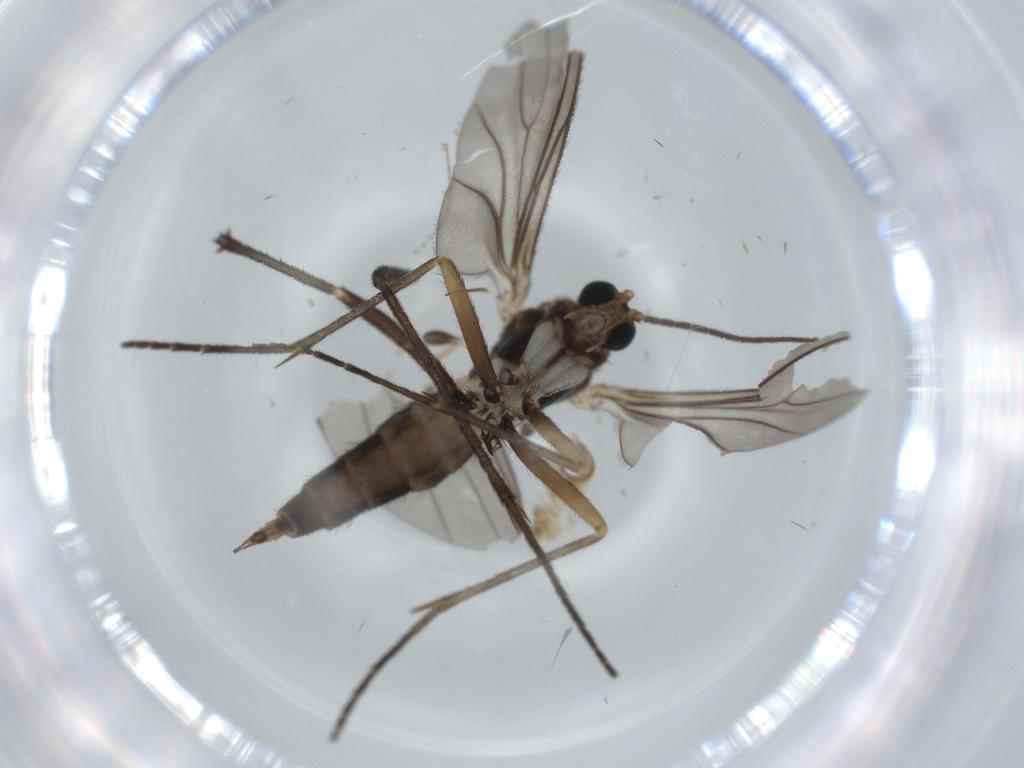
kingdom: Animalia
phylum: Arthropoda
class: Insecta
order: Diptera
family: Cecidomyiidae
